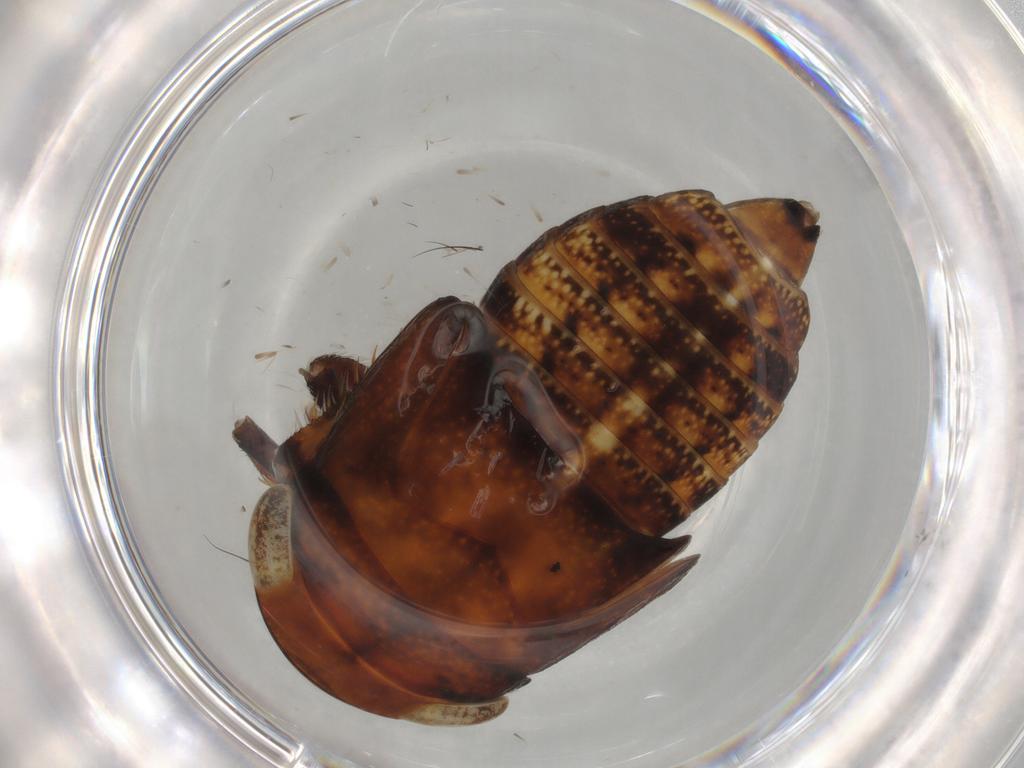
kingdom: Animalia
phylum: Arthropoda
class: Insecta
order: Hemiptera
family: Cicadellidae
